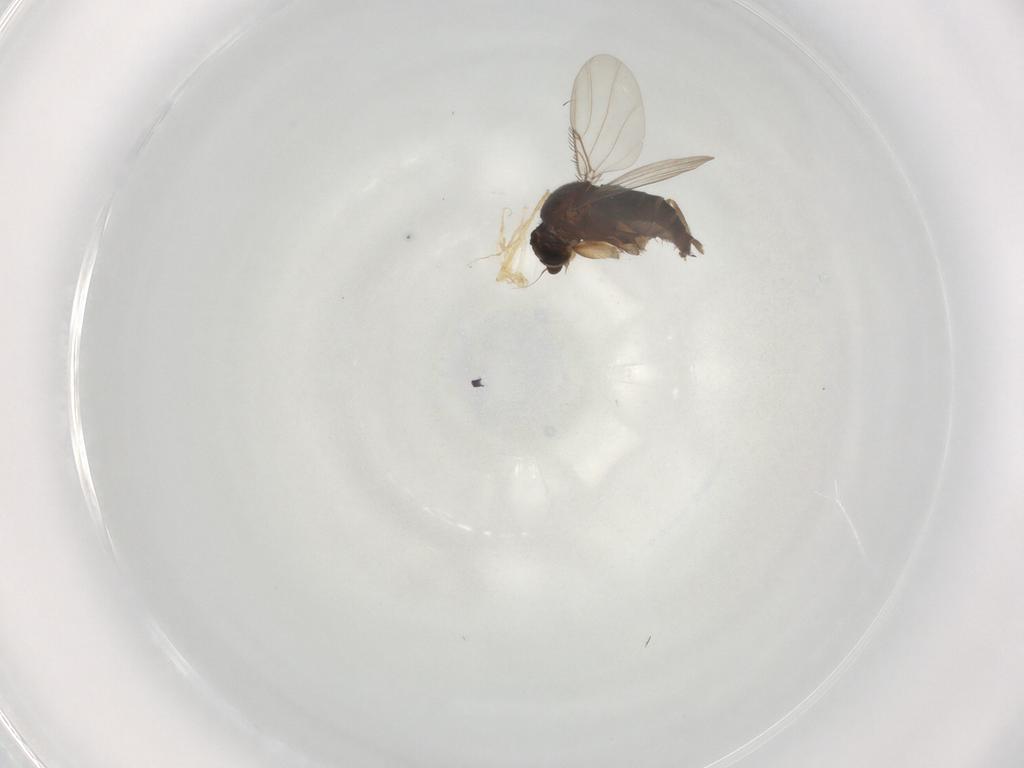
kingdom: Animalia
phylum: Arthropoda
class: Insecta
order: Diptera
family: Phoridae
